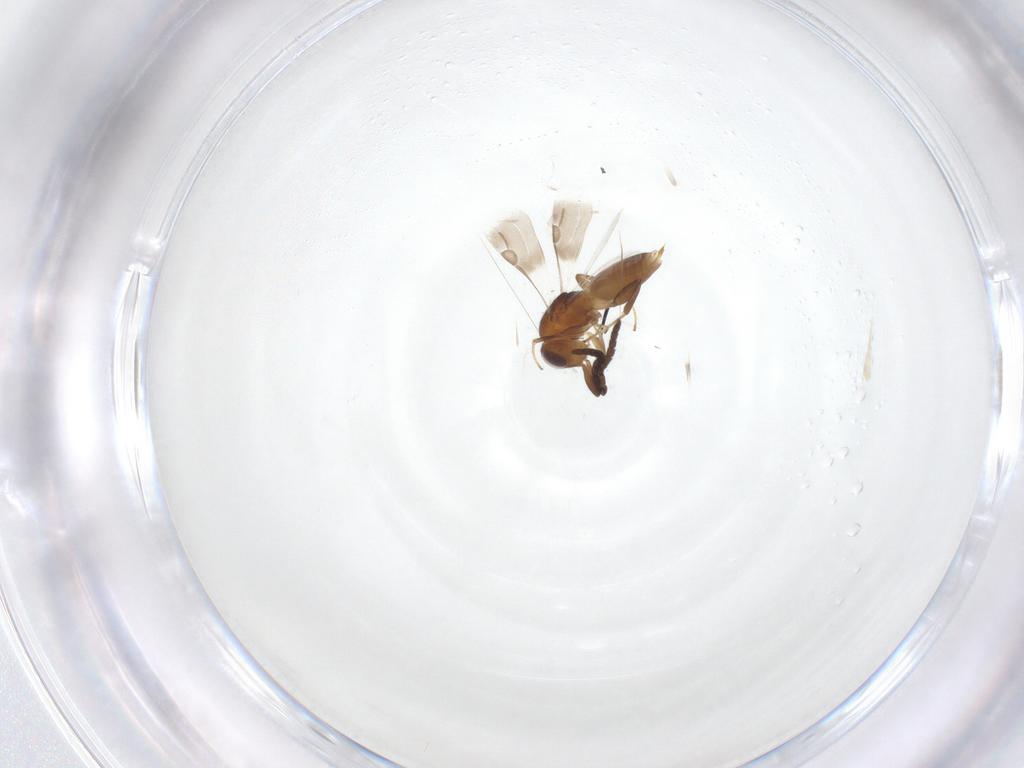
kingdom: Animalia
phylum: Arthropoda
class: Insecta
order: Hymenoptera
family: Megaspilidae
